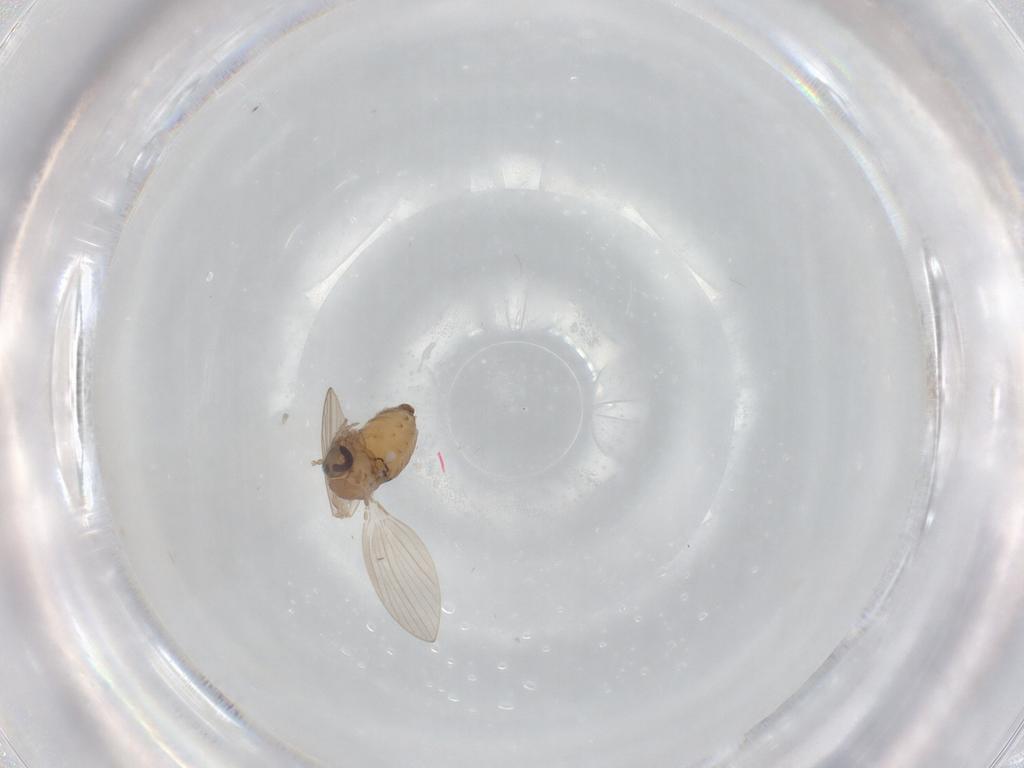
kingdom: Animalia
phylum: Arthropoda
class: Insecta
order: Diptera
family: Psychodidae
